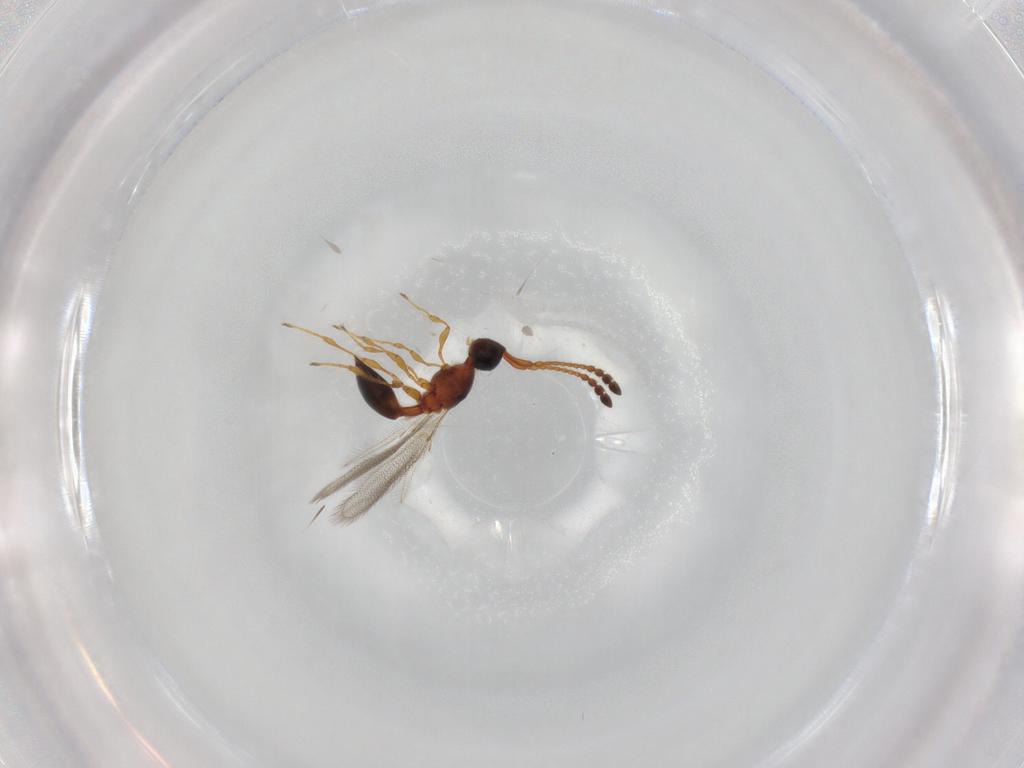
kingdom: Animalia
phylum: Arthropoda
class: Insecta
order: Hymenoptera
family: Diapriidae
